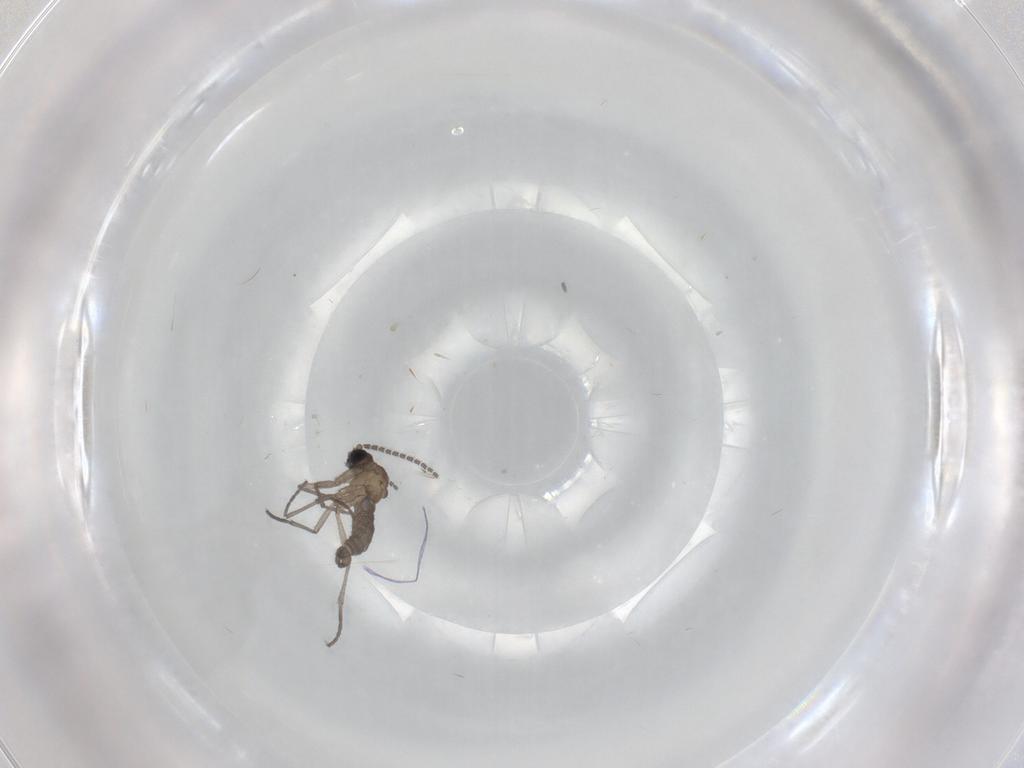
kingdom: Animalia
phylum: Arthropoda
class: Insecta
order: Diptera
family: Sciaridae
